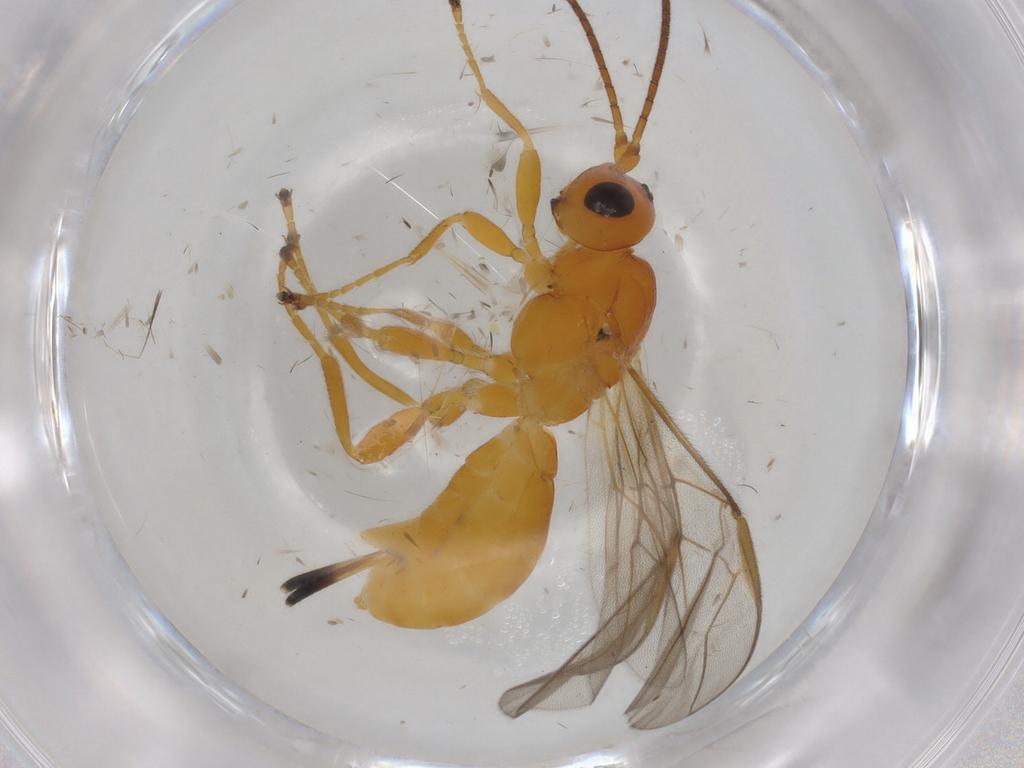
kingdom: Animalia
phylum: Arthropoda
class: Insecta
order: Hymenoptera
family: Braconidae
